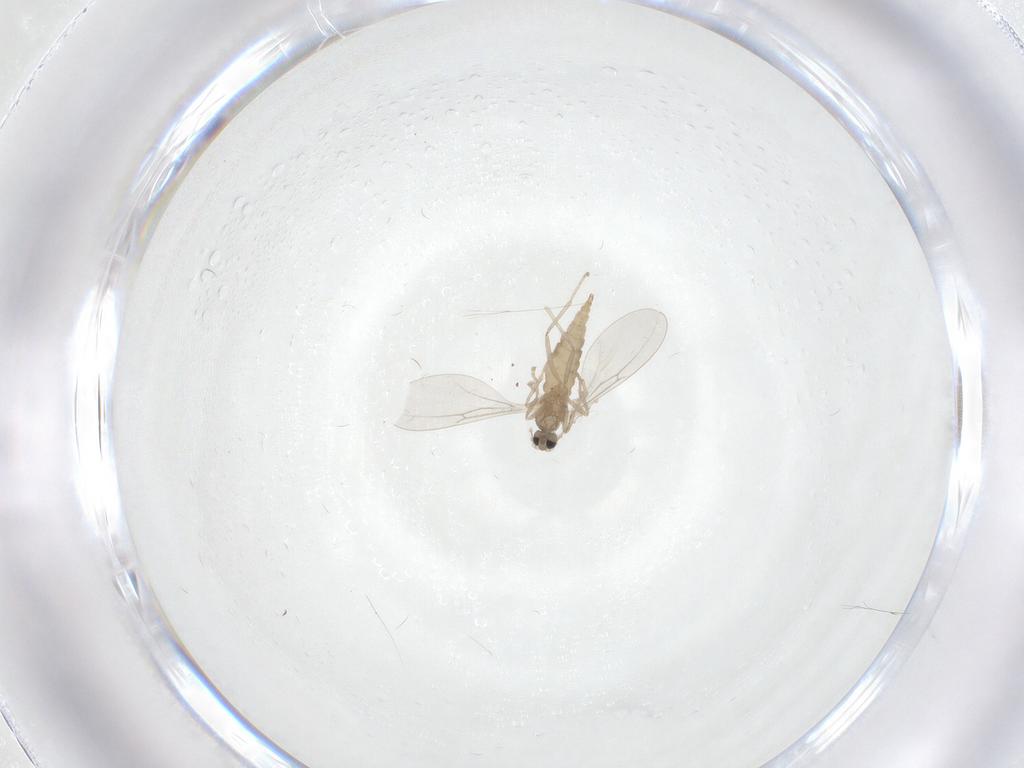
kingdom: Animalia
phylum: Arthropoda
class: Insecta
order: Diptera
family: Cecidomyiidae
